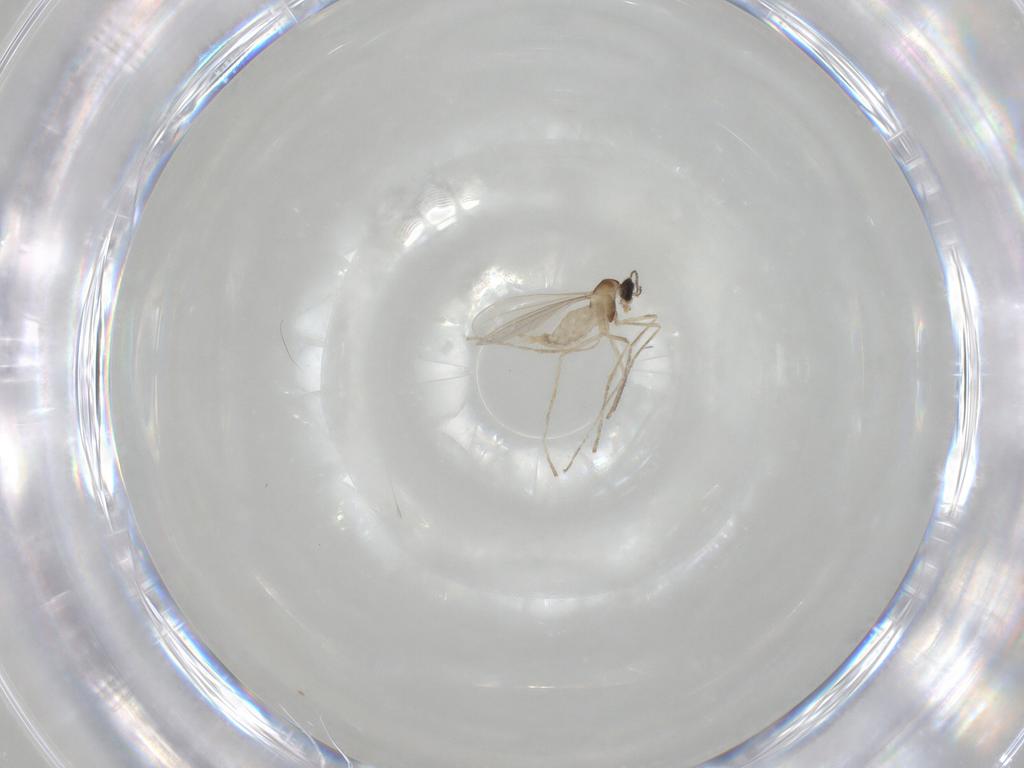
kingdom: Animalia
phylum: Arthropoda
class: Insecta
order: Diptera
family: Cecidomyiidae
